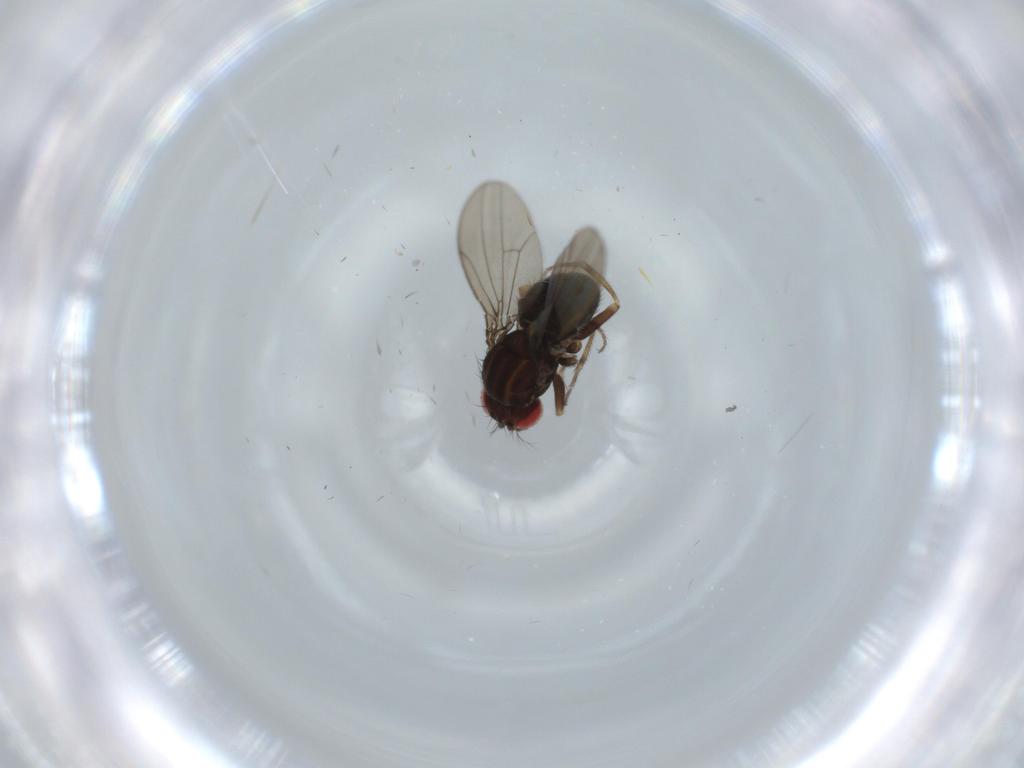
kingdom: Animalia
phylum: Arthropoda
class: Insecta
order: Diptera
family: Drosophilidae
